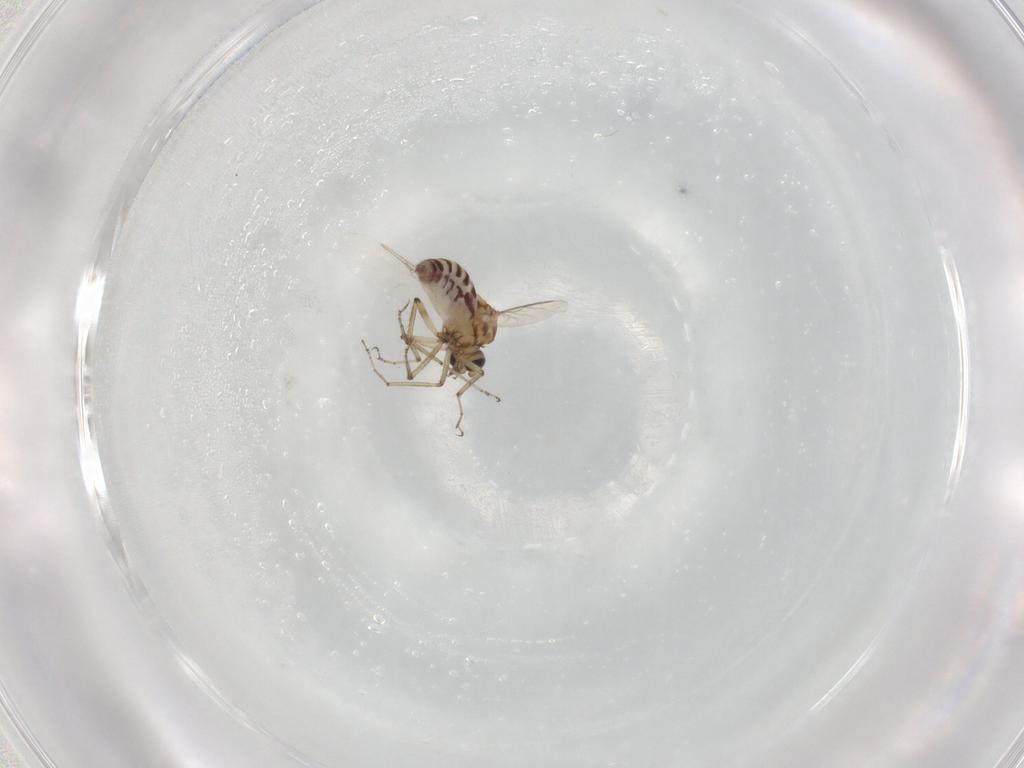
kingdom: Animalia
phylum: Arthropoda
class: Insecta
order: Diptera
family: Ceratopogonidae
